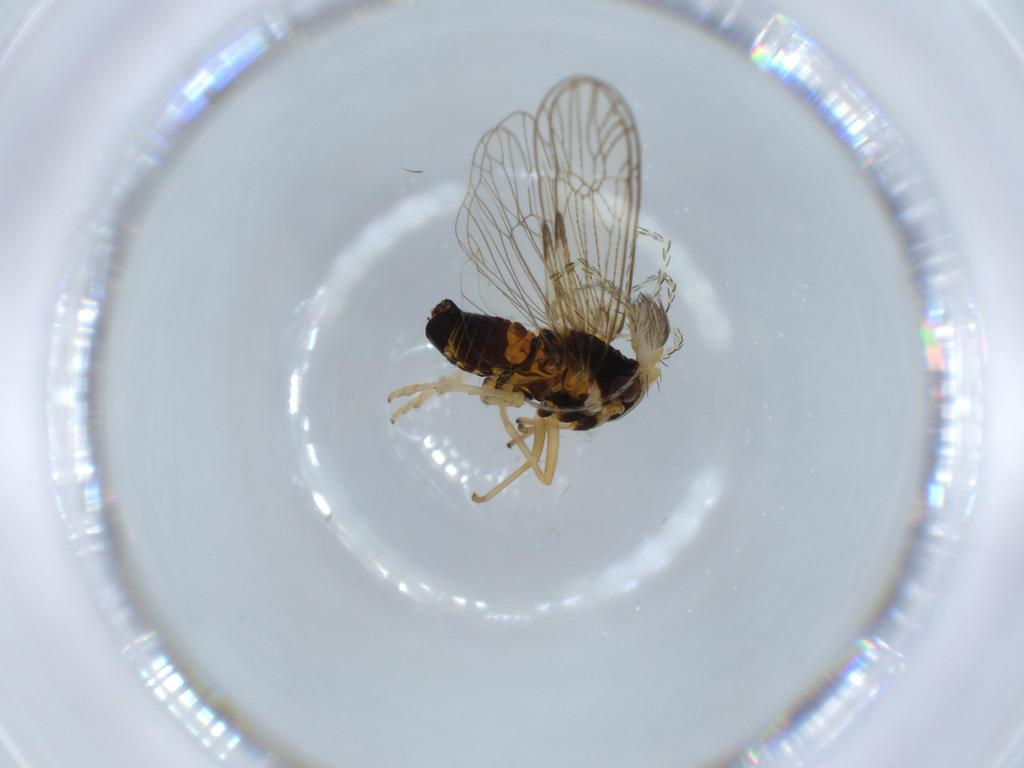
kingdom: Animalia
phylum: Arthropoda
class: Arachnida
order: Trombidiformes
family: Erythraeidae
